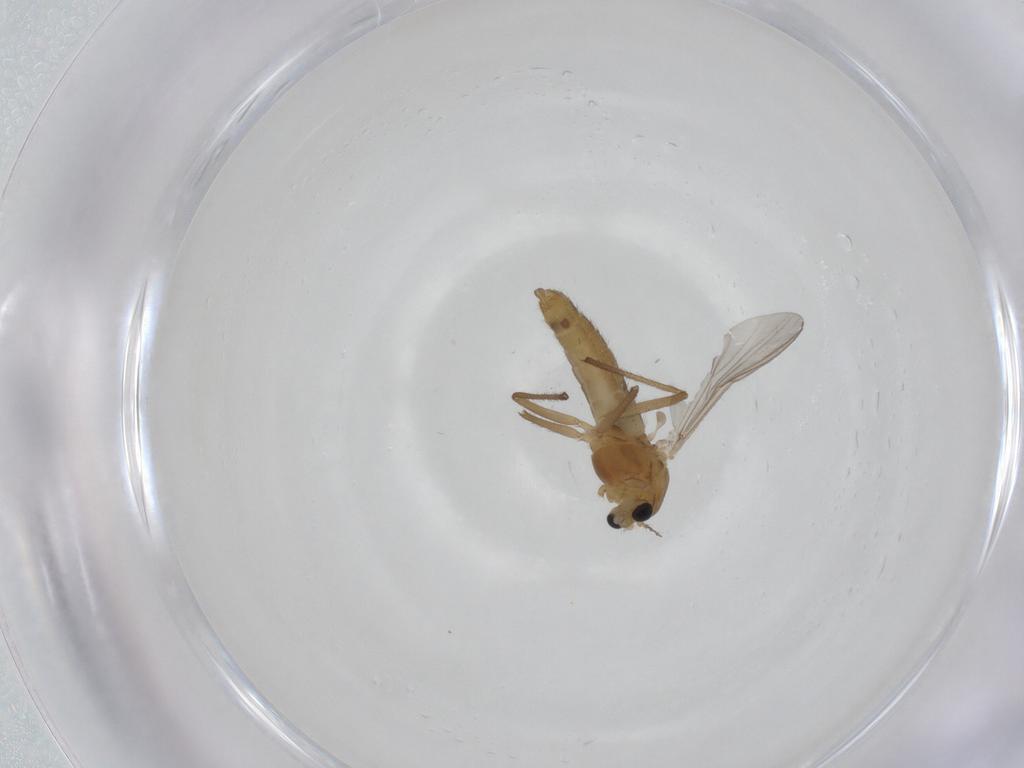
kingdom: Animalia
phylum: Arthropoda
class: Insecta
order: Diptera
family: Chironomidae
